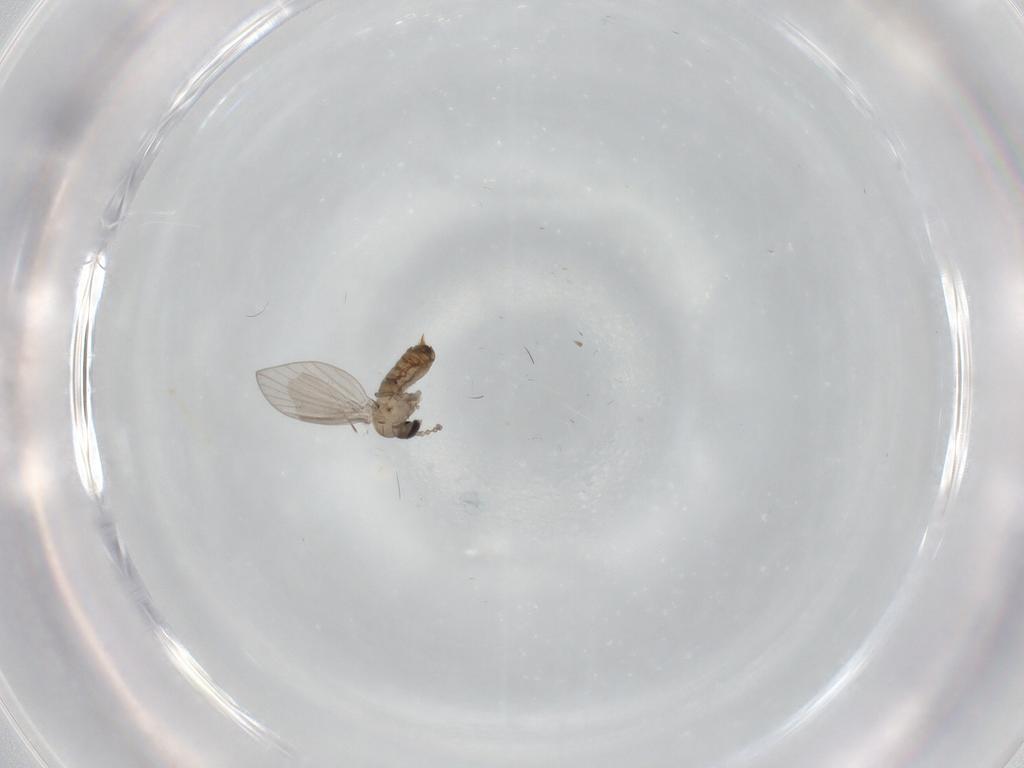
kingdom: Animalia
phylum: Arthropoda
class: Insecta
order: Diptera
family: Psychodidae
